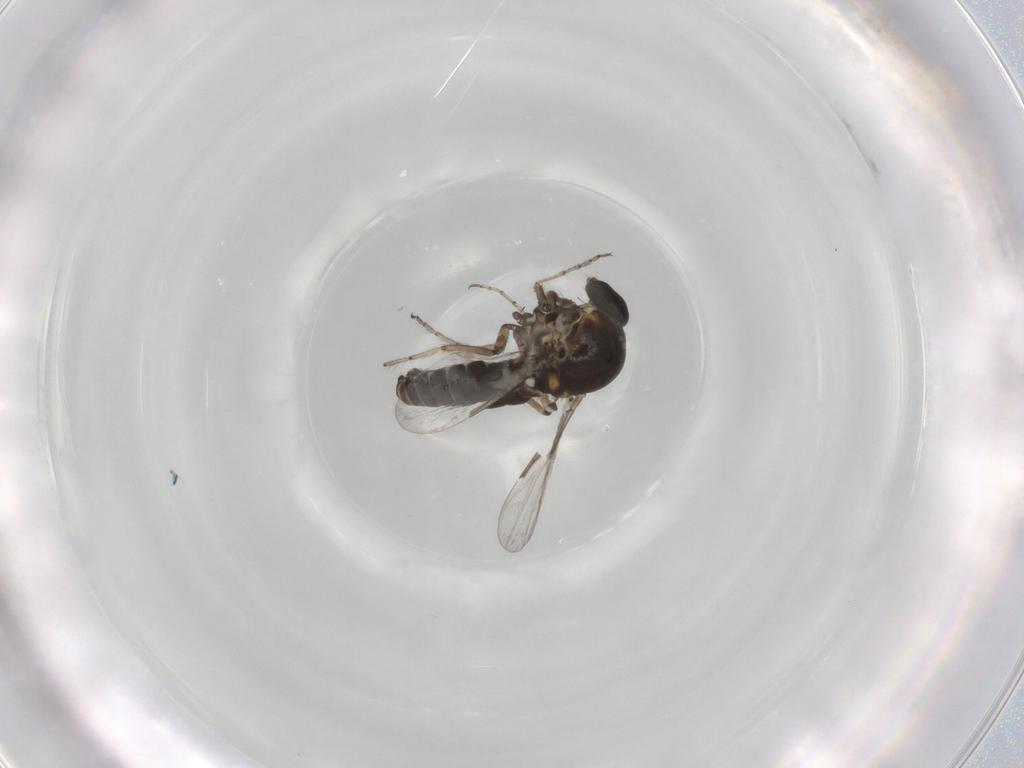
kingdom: Animalia
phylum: Arthropoda
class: Insecta
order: Diptera
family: Ceratopogonidae
